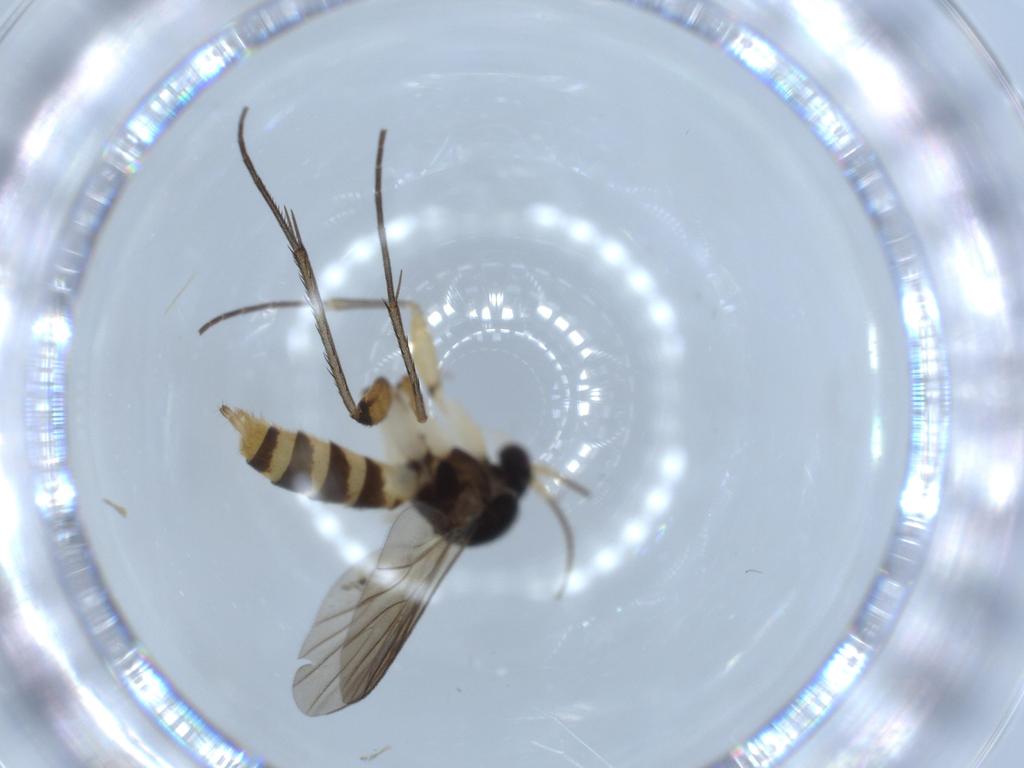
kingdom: Animalia
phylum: Arthropoda
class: Insecta
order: Diptera
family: Mycetophilidae
